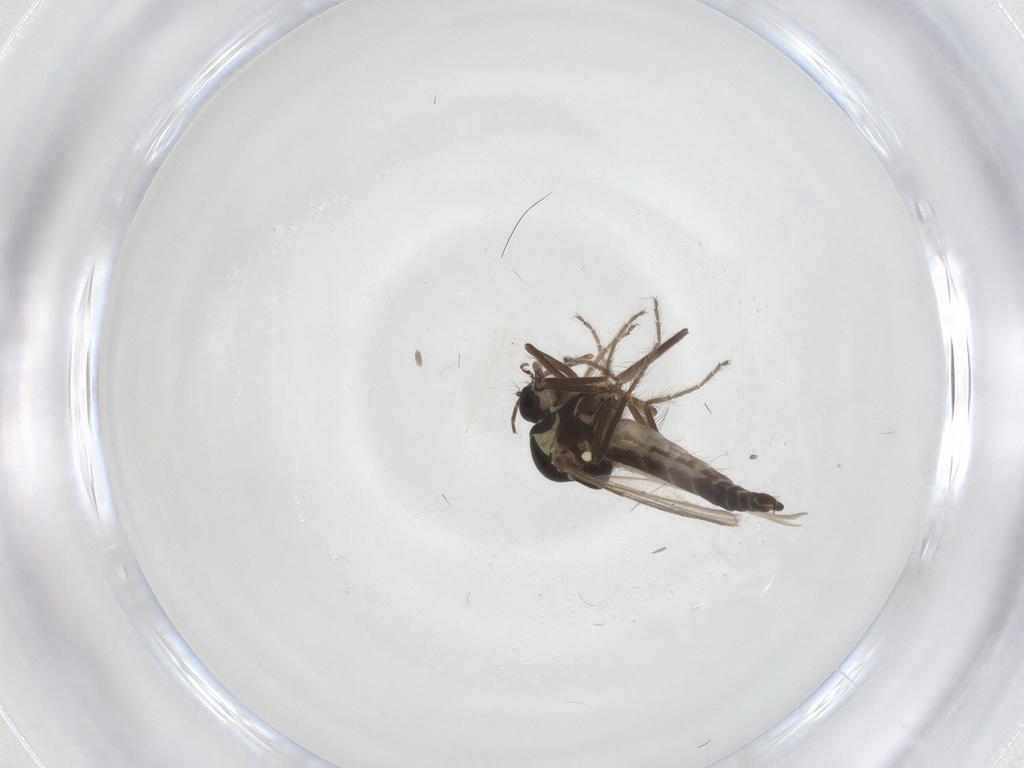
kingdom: Animalia
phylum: Arthropoda
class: Insecta
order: Diptera
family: Ceratopogonidae
